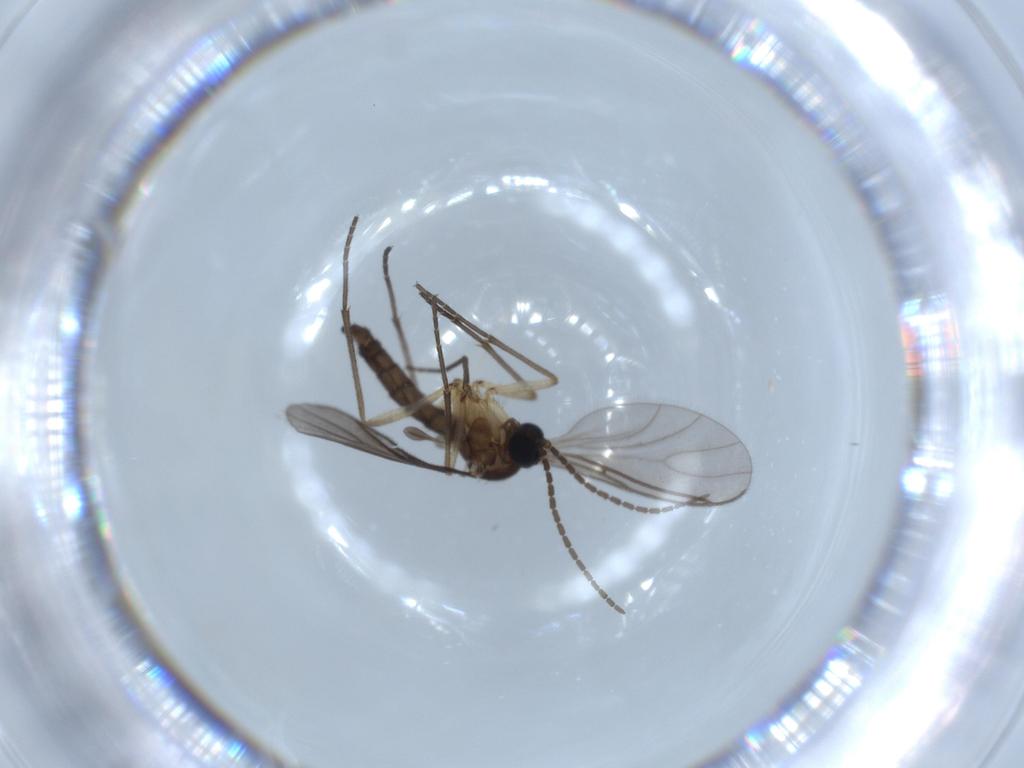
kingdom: Animalia
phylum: Arthropoda
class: Insecta
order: Diptera
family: Sciaridae
